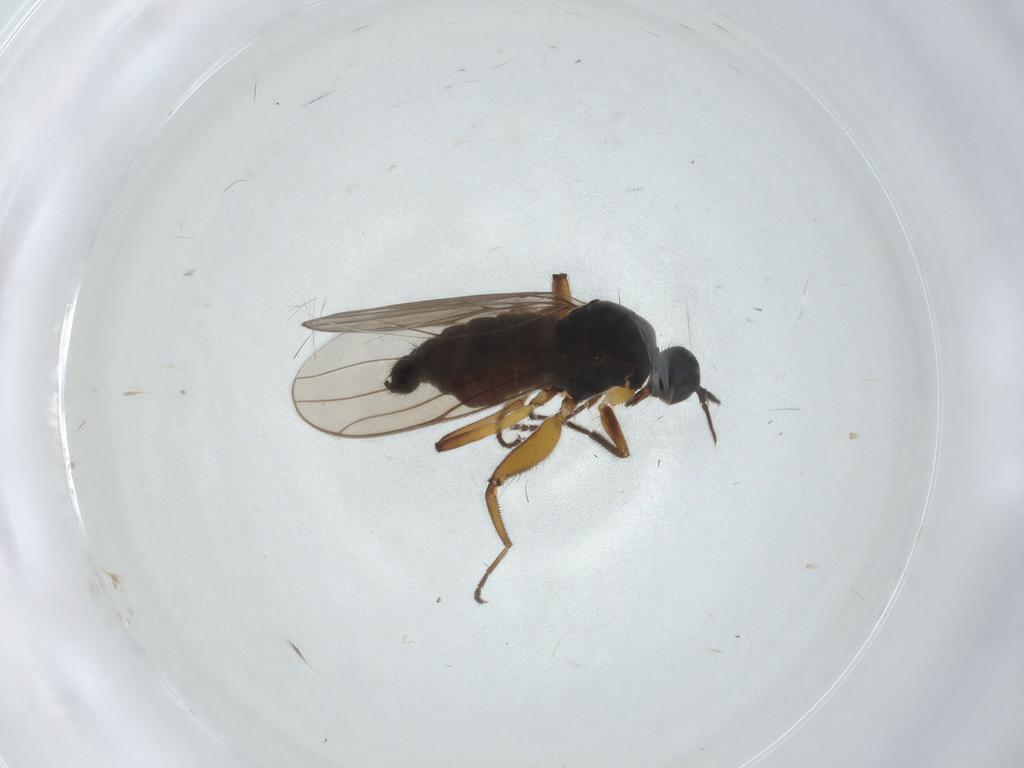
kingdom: Animalia
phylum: Arthropoda
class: Insecta
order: Diptera
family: Hybotidae
